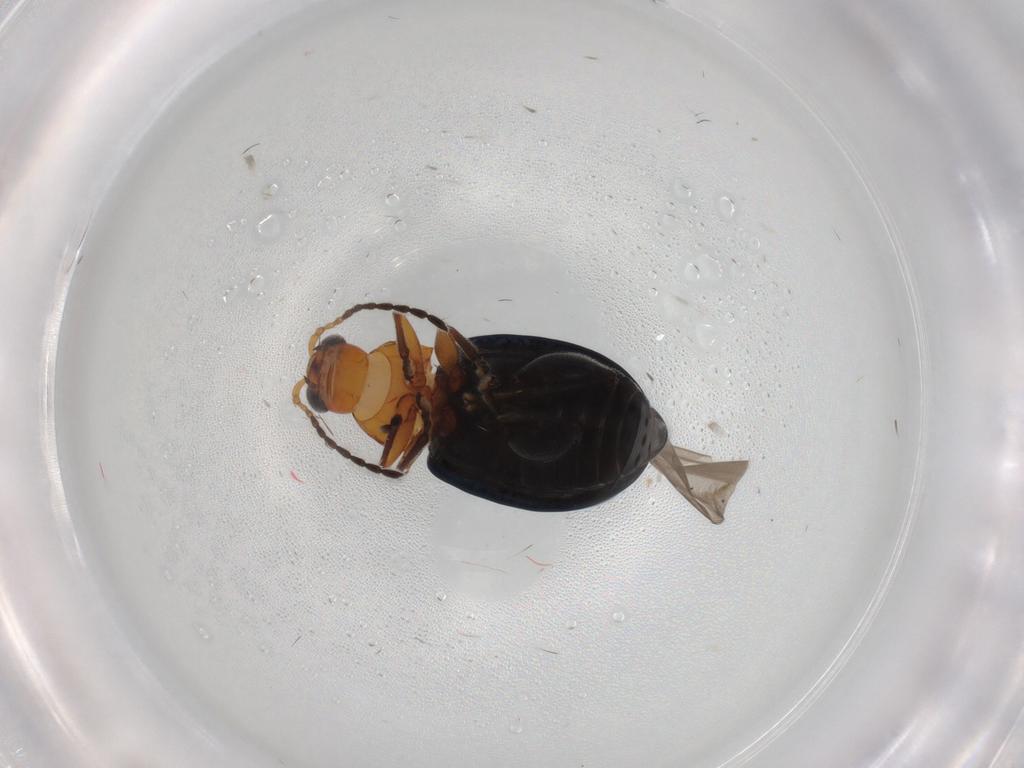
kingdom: Animalia
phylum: Arthropoda
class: Insecta
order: Coleoptera
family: Chrysomelidae
